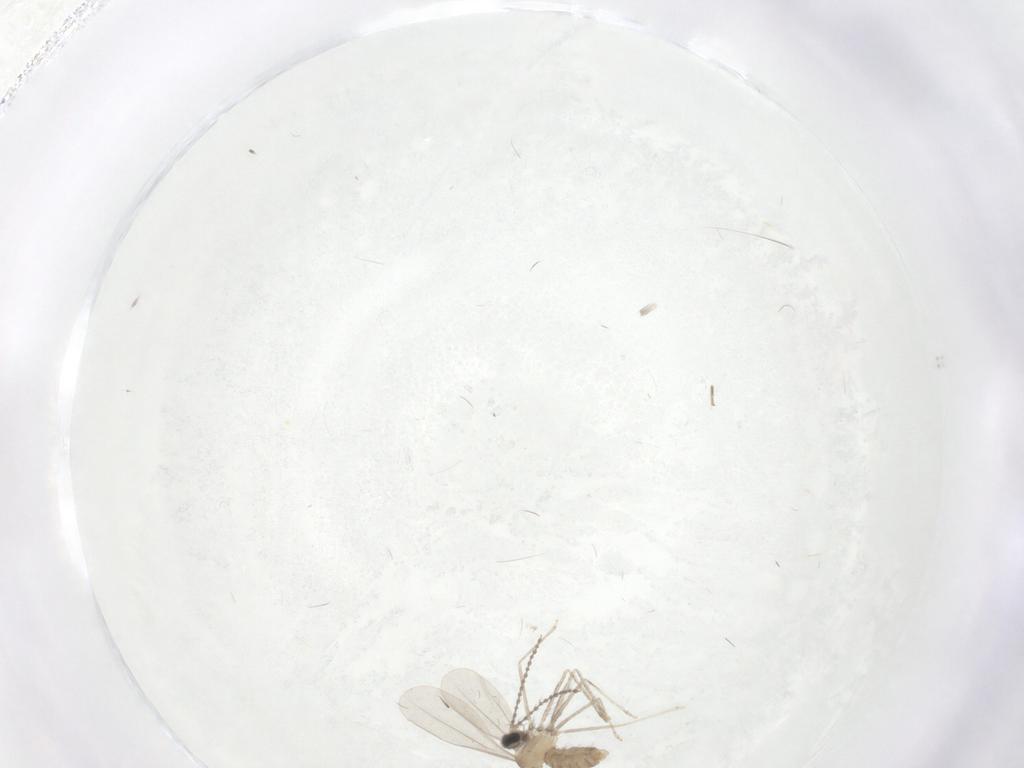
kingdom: Animalia
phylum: Arthropoda
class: Insecta
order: Diptera
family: Cecidomyiidae
